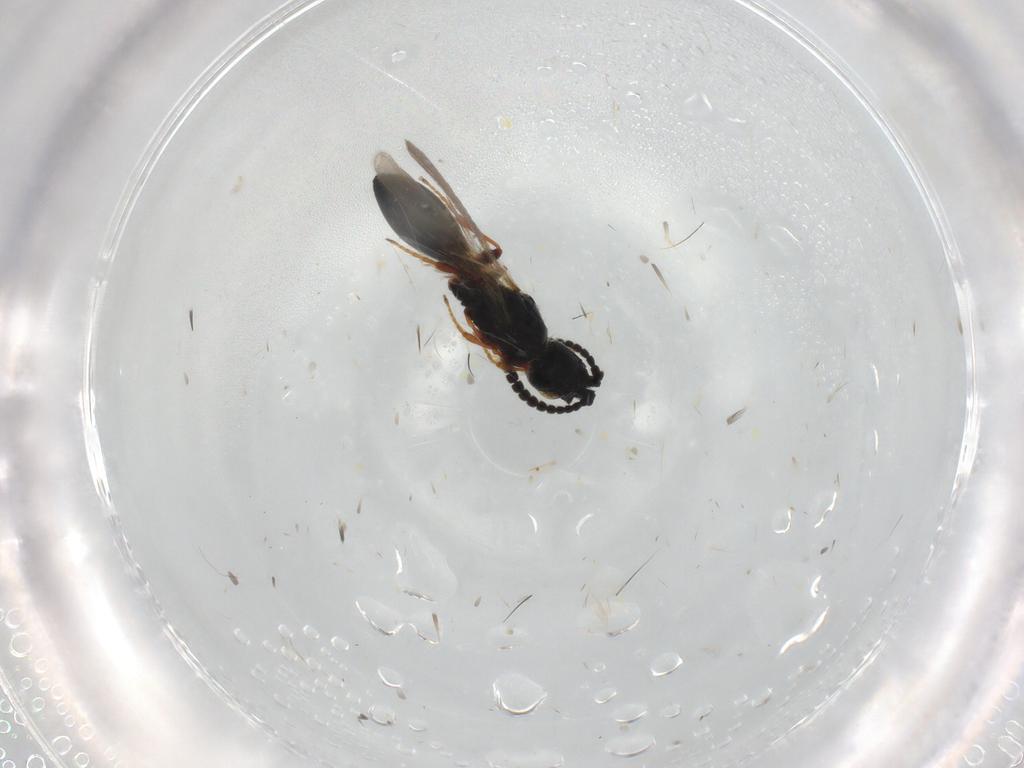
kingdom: Animalia
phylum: Arthropoda
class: Insecta
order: Hymenoptera
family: Diapriidae
